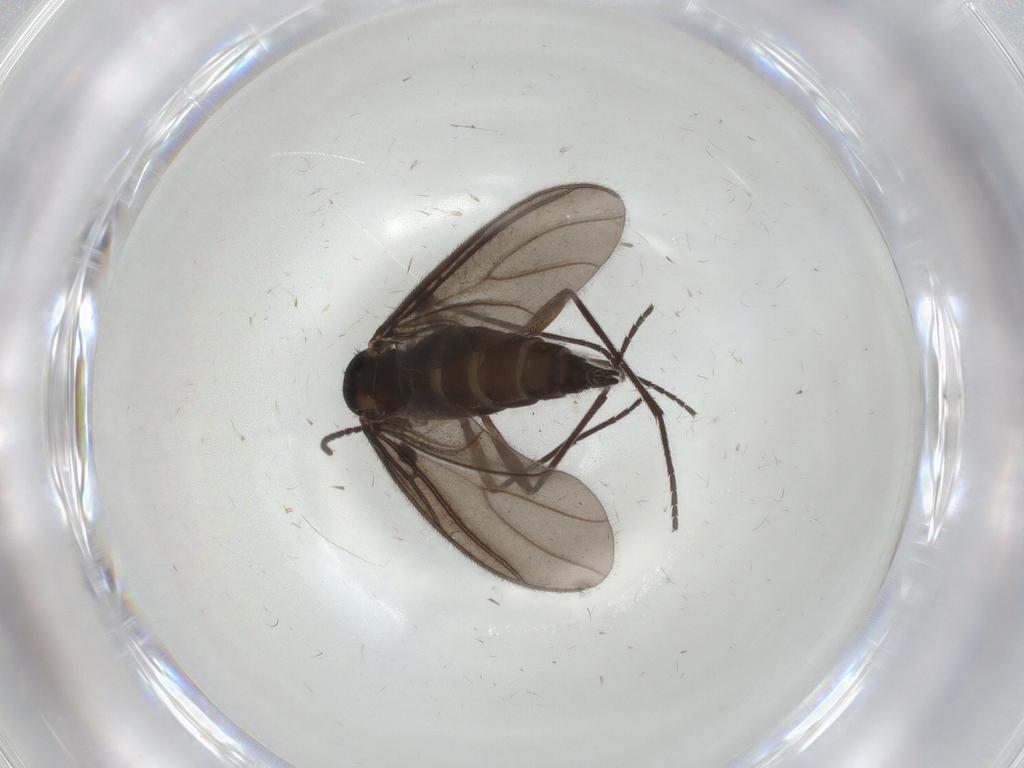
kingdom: Animalia
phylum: Arthropoda
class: Insecta
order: Diptera
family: Sciaridae
